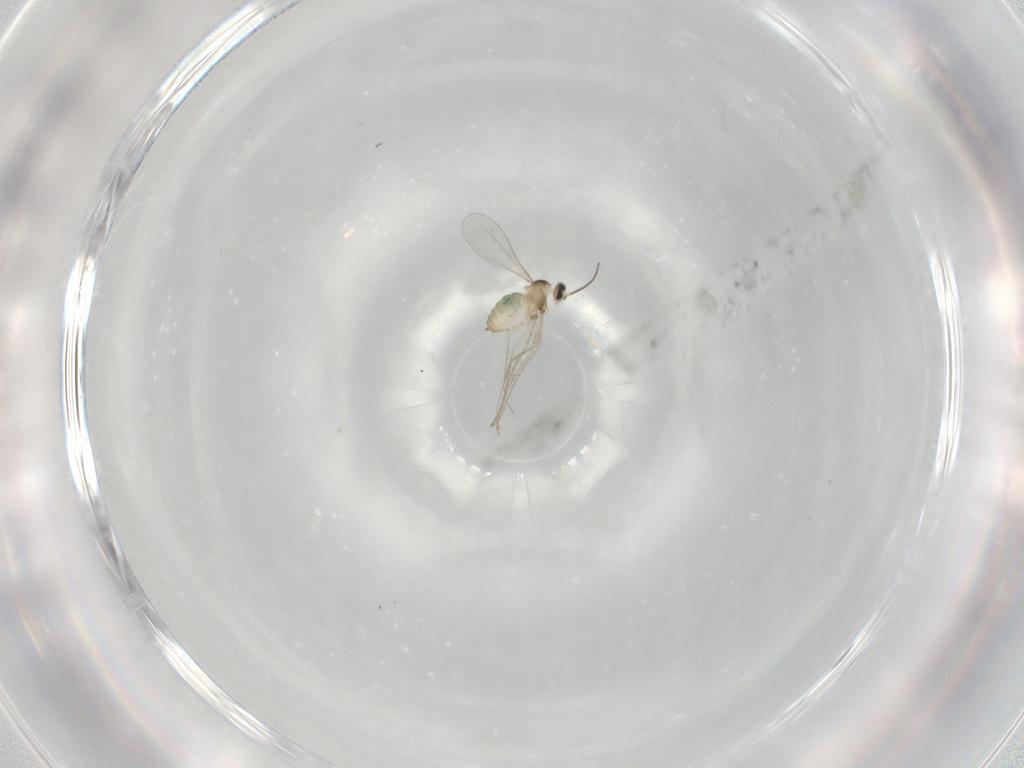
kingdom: Animalia
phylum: Arthropoda
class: Insecta
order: Diptera
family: Cecidomyiidae
